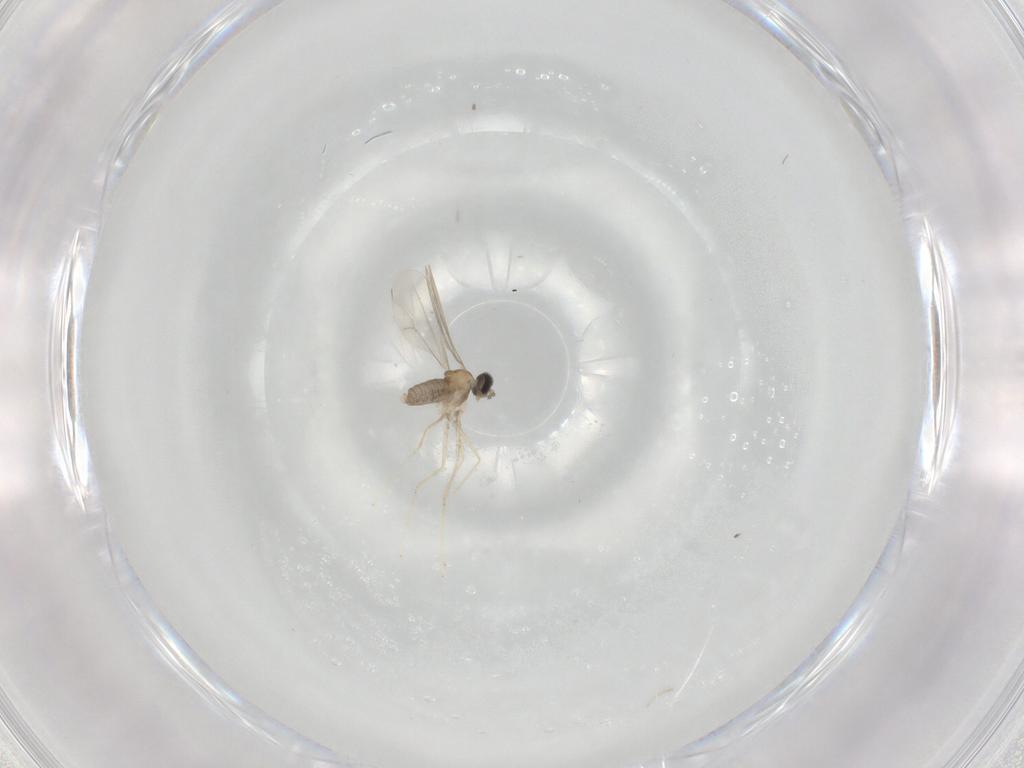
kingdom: Animalia
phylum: Arthropoda
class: Insecta
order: Diptera
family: Cecidomyiidae
